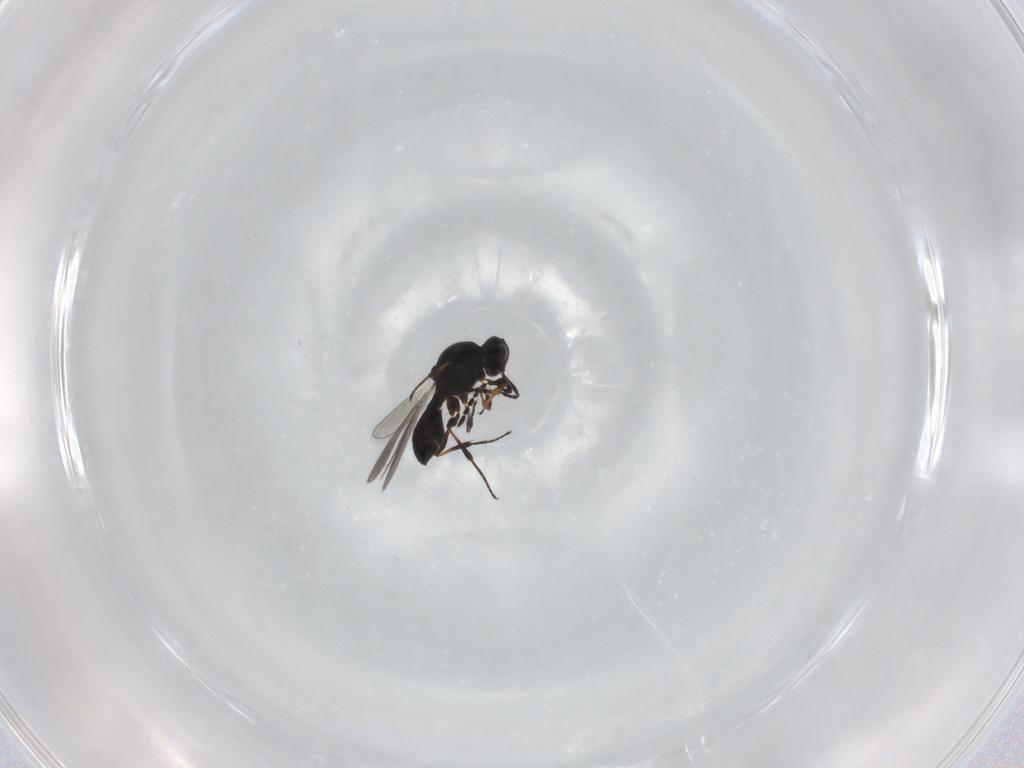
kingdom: Animalia
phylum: Arthropoda
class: Insecta
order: Hymenoptera
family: Platygastridae
